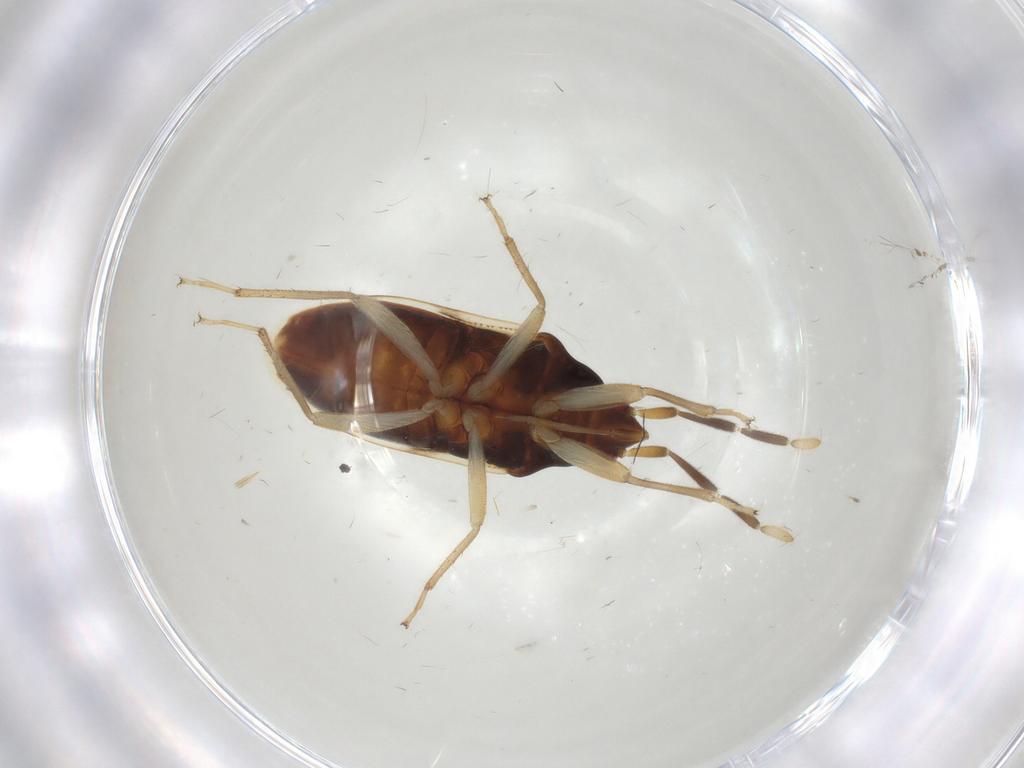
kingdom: Animalia
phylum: Arthropoda
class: Insecta
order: Hemiptera
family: Rhyparochromidae
